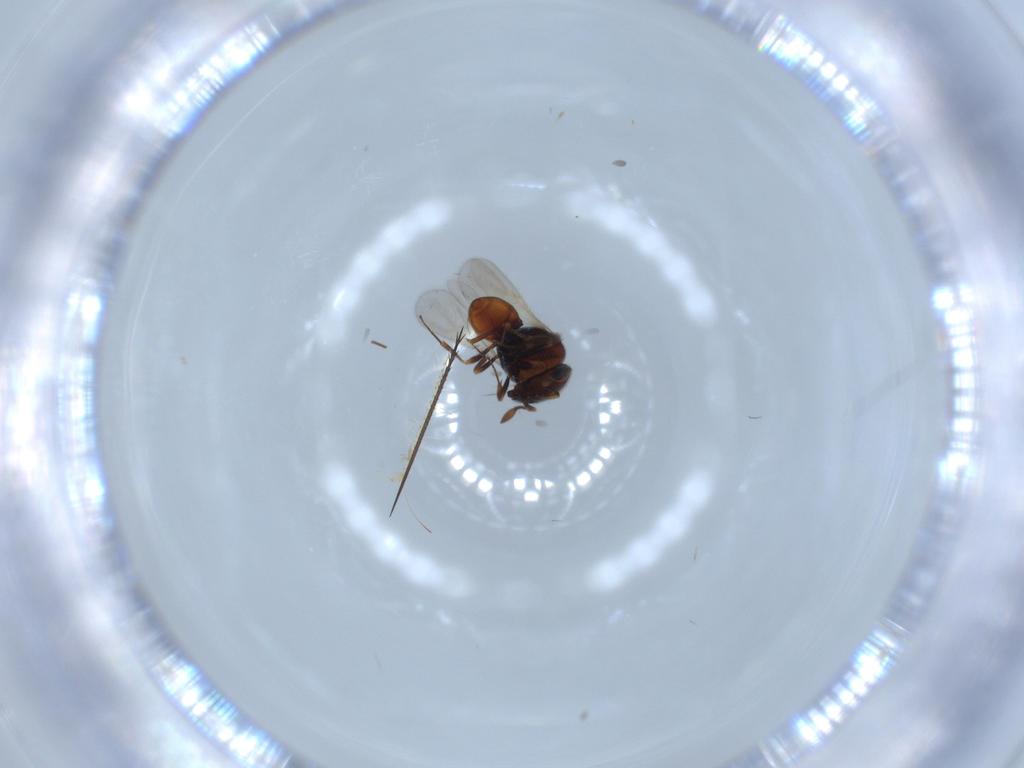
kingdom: Animalia
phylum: Arthropoda
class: Insecta
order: Hymenoptera
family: Scelionidae
